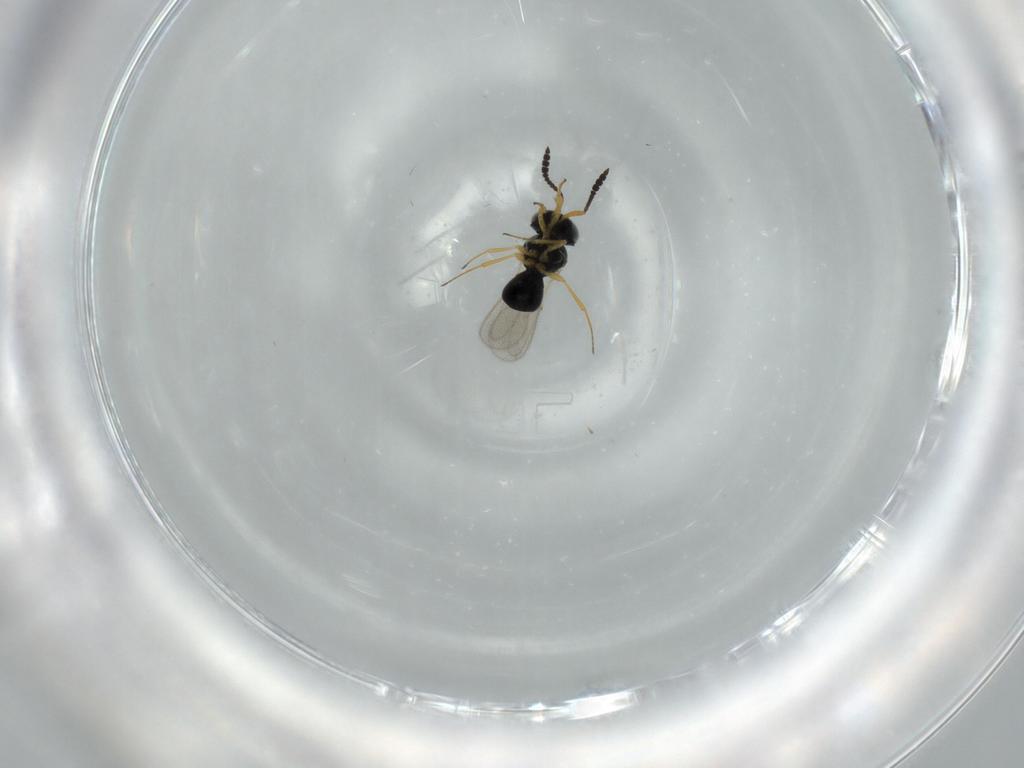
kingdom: Animalia
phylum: Arthropoda
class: Insecta
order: Hymenoptera
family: Scelionidae
